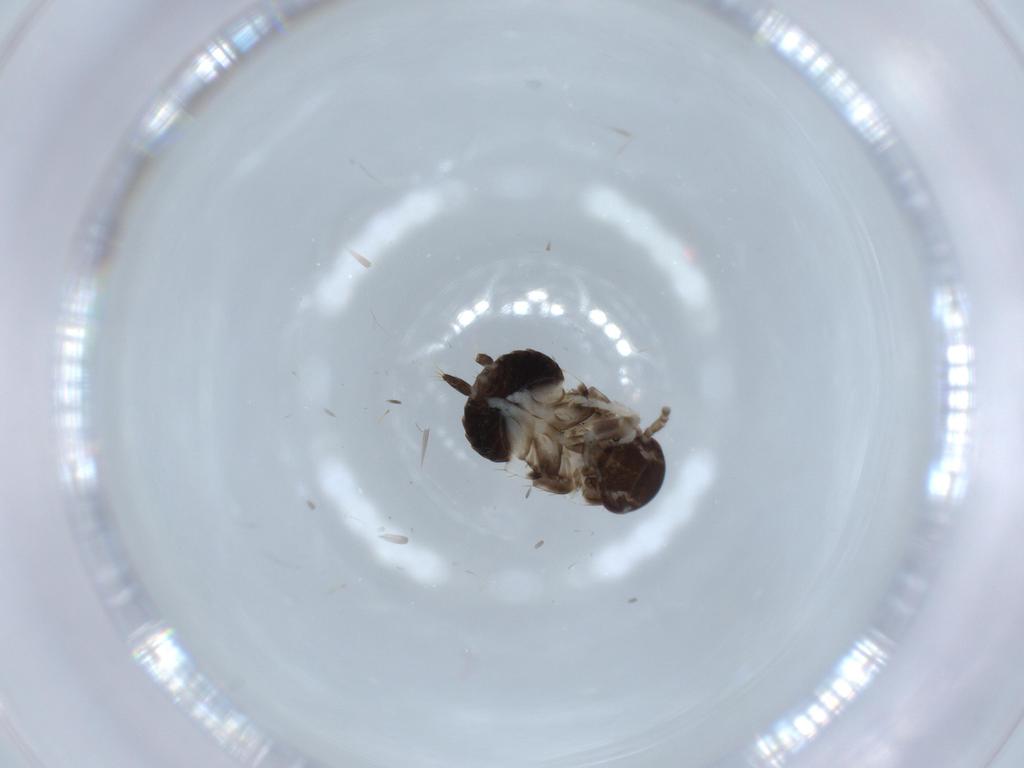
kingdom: Animalia
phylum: Arthropoda
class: Insecta
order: Blattodea
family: Ectobiidae
